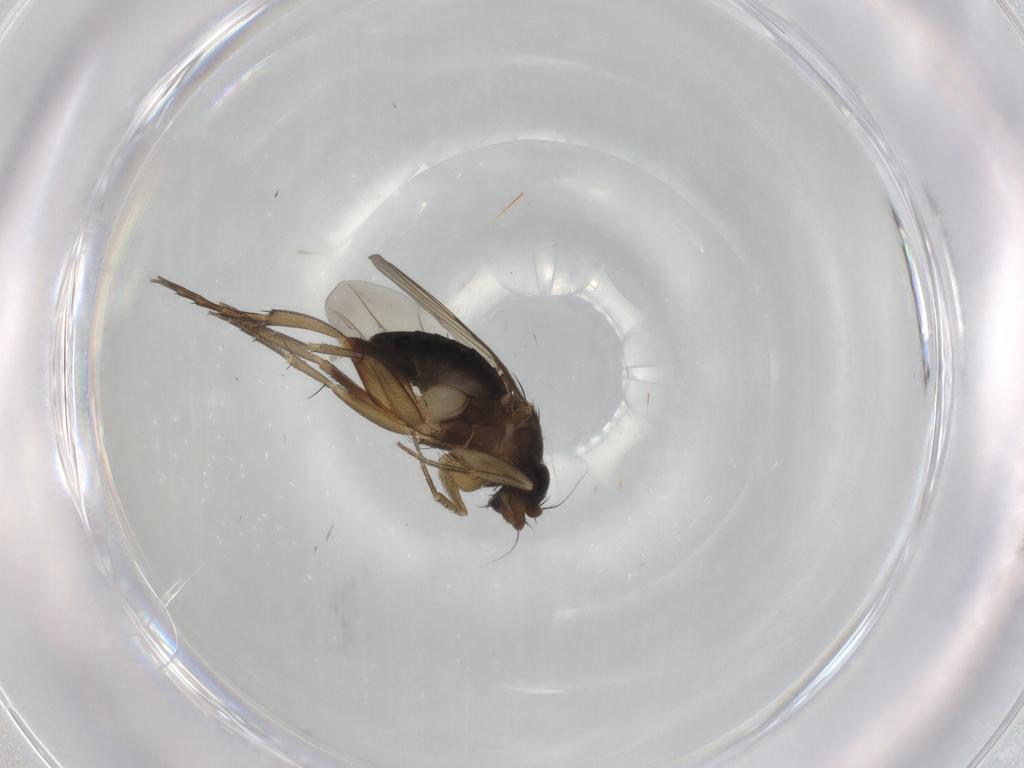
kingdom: Animalia
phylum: Arthropoda
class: Insecta
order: Diptera
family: Phoridae
